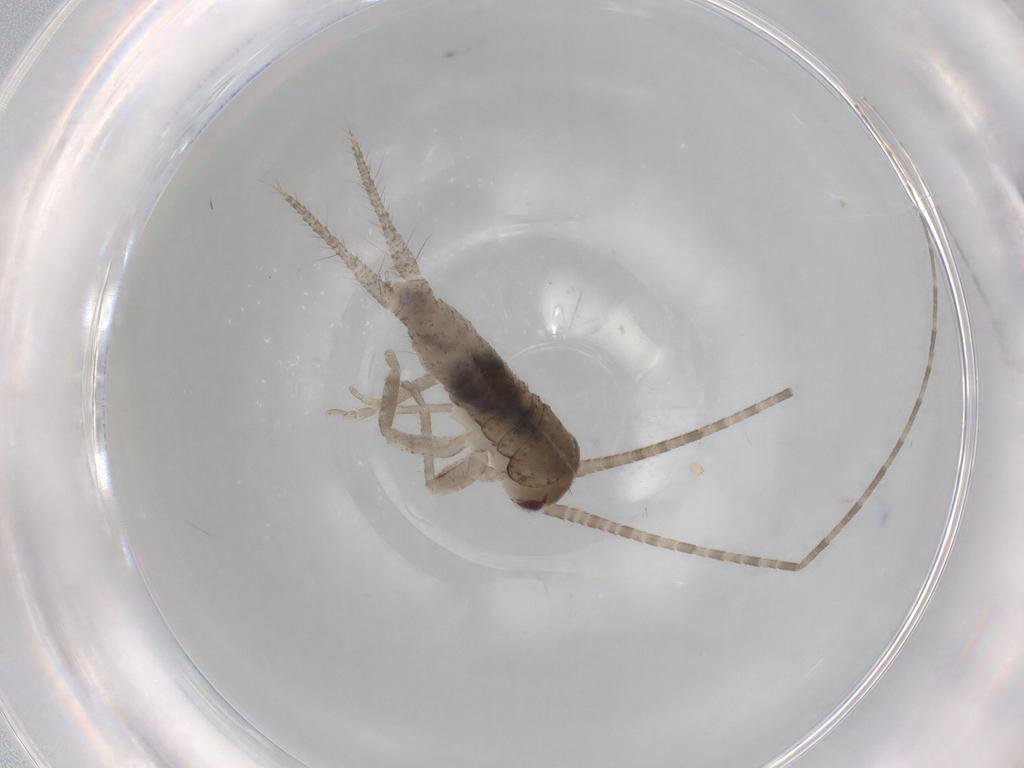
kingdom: Animalia
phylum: Arthropoda
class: Insecta
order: Orthoptera
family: Gryllidae
